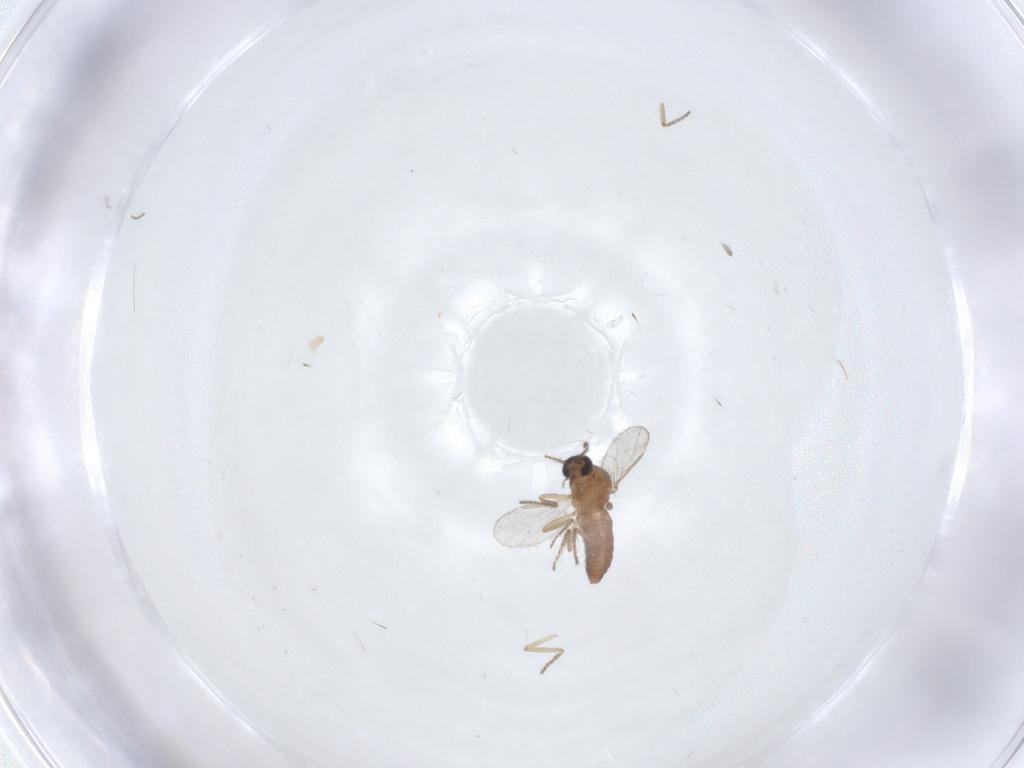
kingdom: Animalia
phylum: Arthropoda
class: Insecta
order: Diptera
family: Ceratopogonidae
